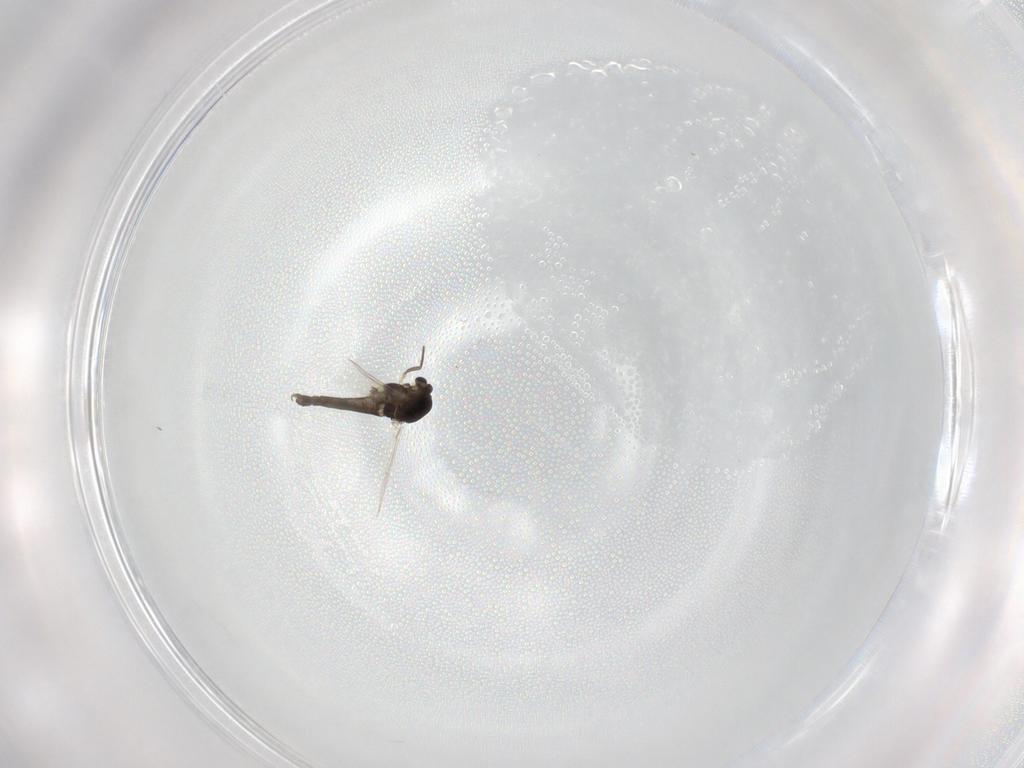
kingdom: Animalia
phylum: Arthropoda
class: Insecta
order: Diptera
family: Chironomidae
